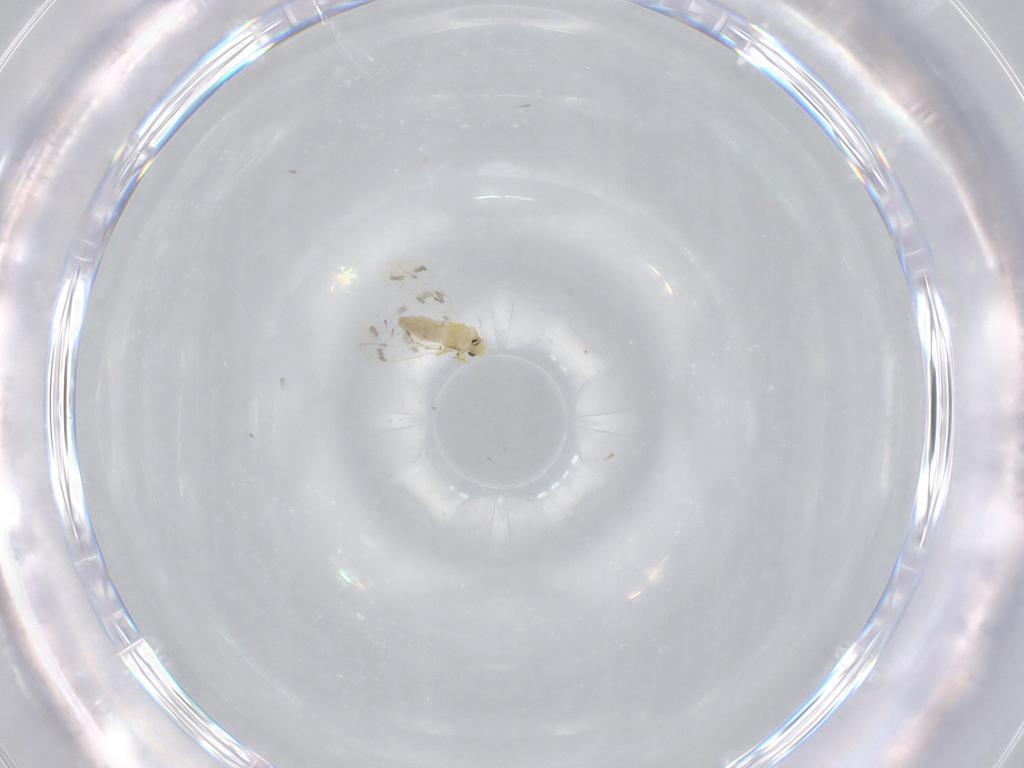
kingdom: Animalia
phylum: Arthropoda
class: Insecta
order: Hemiptera
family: Aleyrodidae
